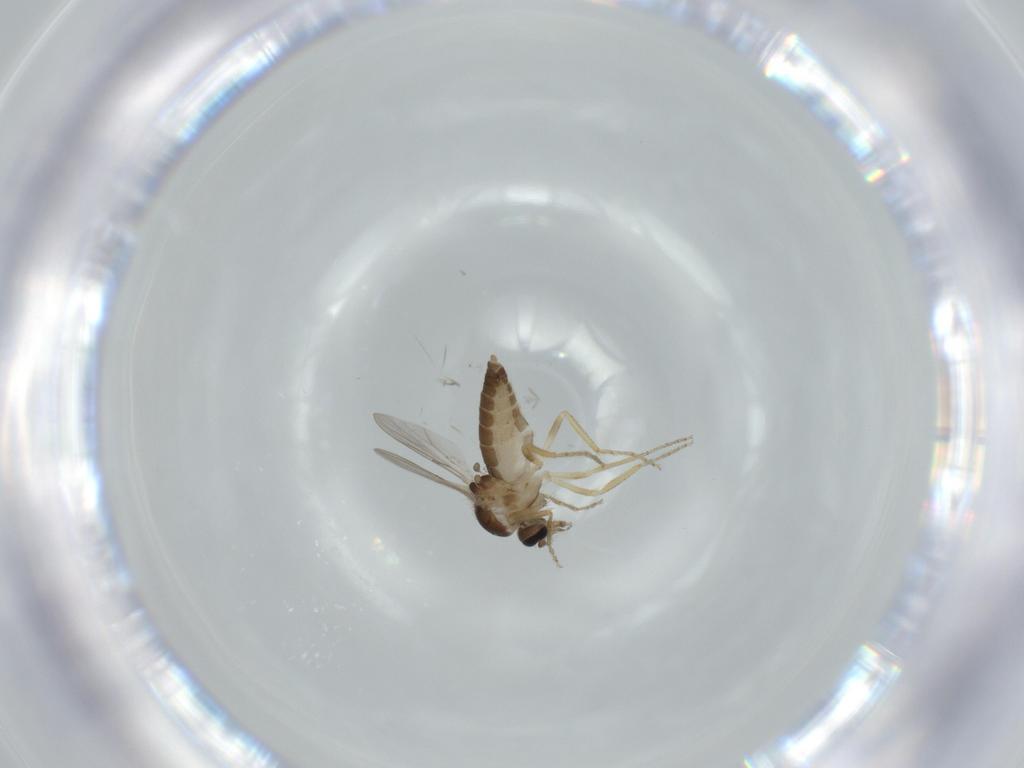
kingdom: Animalia
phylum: Arthropoda
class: Insecta
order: Diptera
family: Ceratopogonidae
